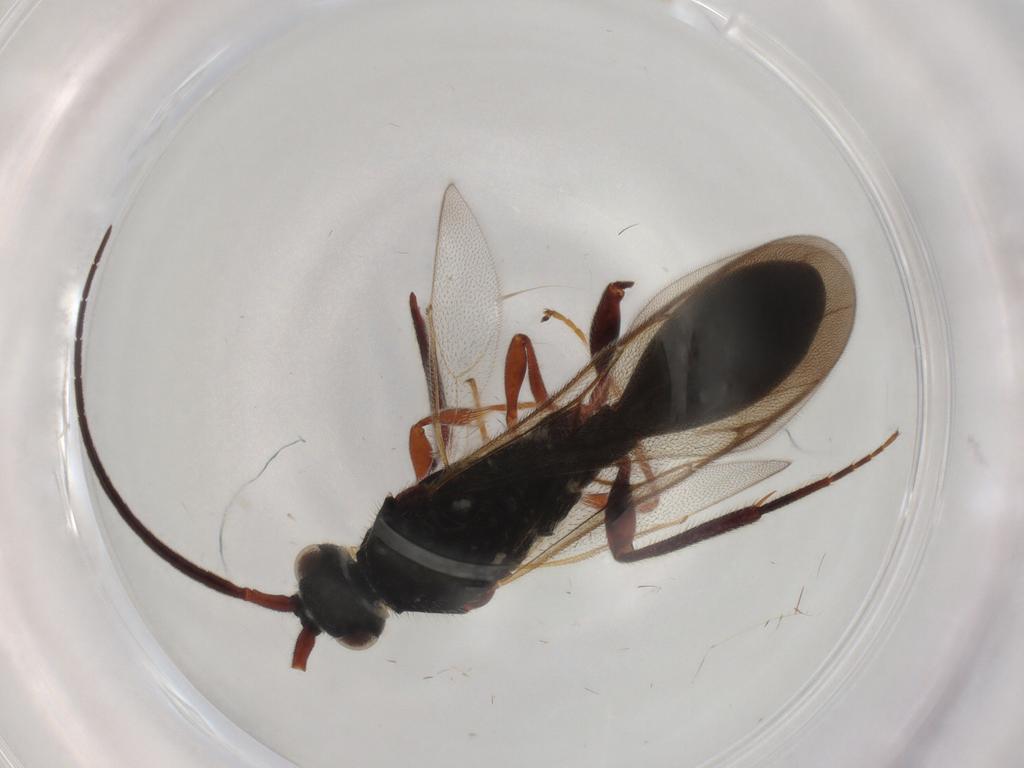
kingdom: Animalia
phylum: Arthropoda
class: Insecta
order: Hymenoptera
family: Diapriidae
